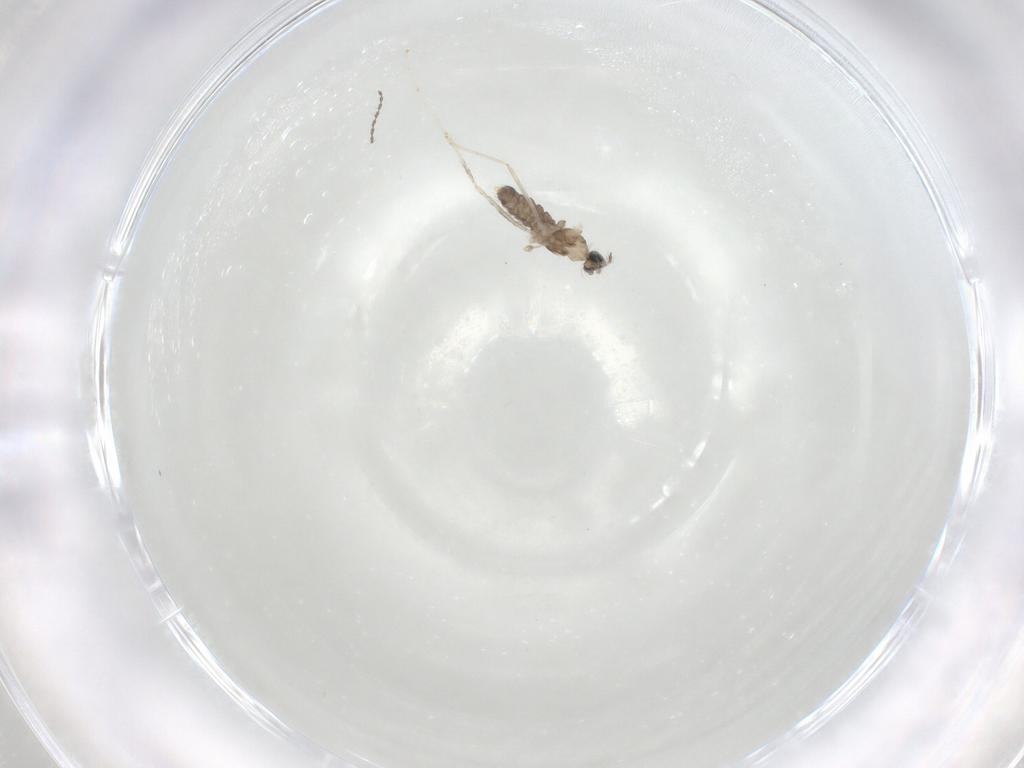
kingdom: Animalia
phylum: Arthropoda
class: Insecta
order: Diptera
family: Cecidomyiidae
